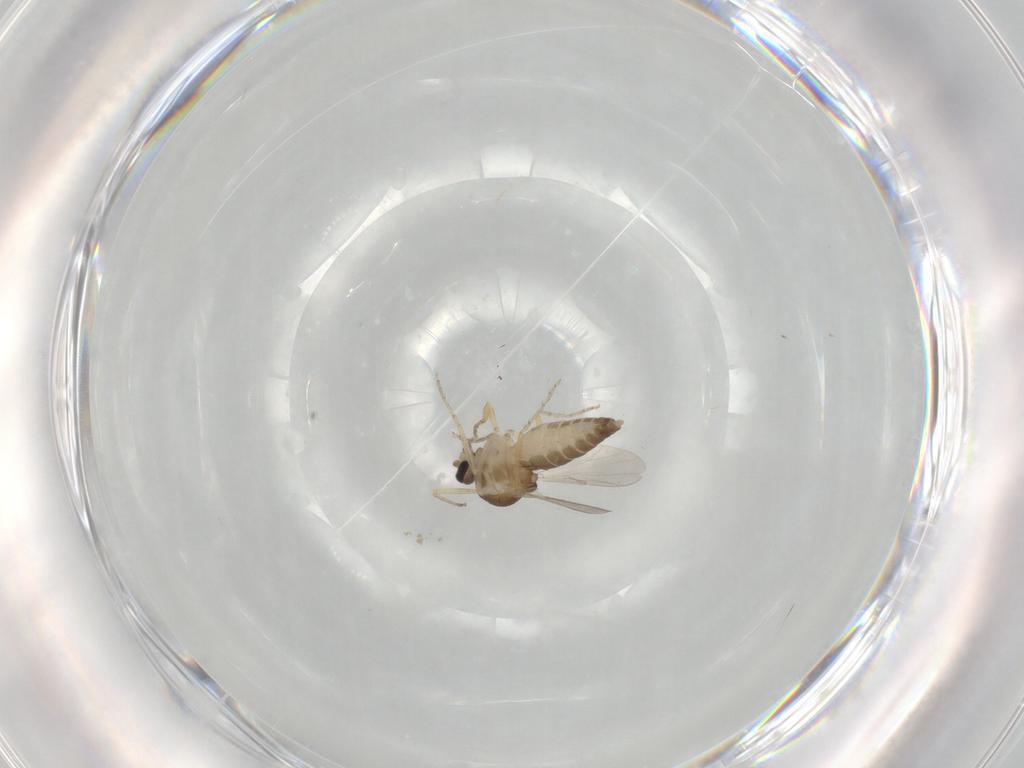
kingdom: Animalia
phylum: Arthropoda
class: Insecta
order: Diptera
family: Ceratopogonidae
